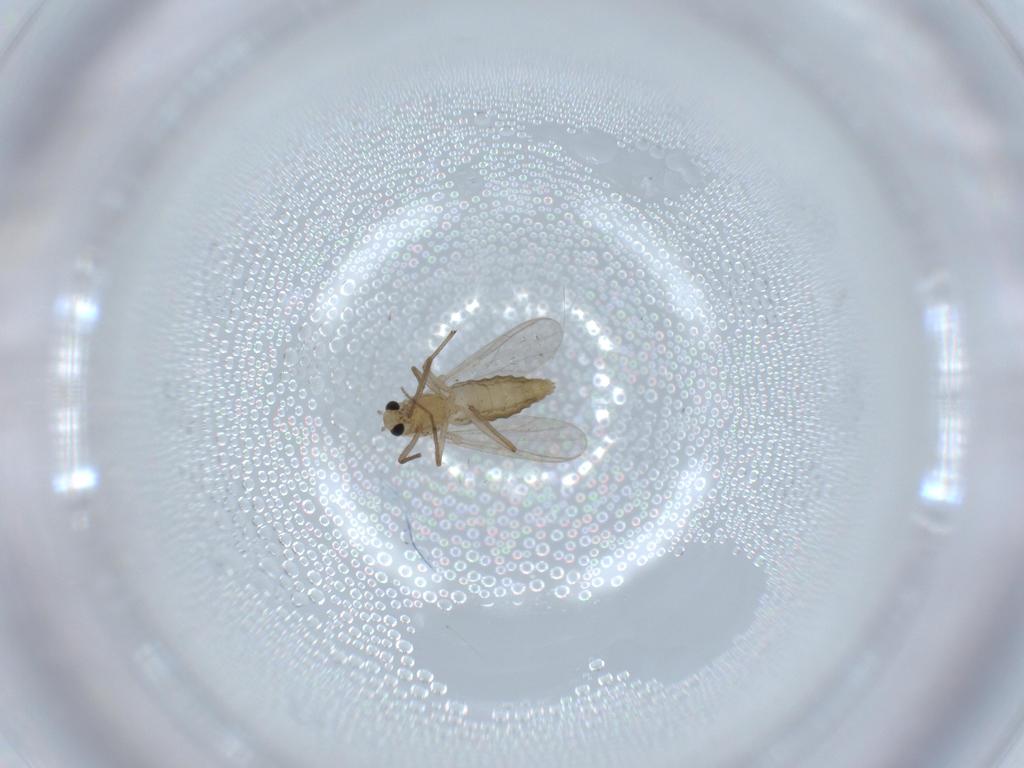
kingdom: Animalia
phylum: Arthropoda
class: Insecta
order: Diptera
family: Chironomidae
